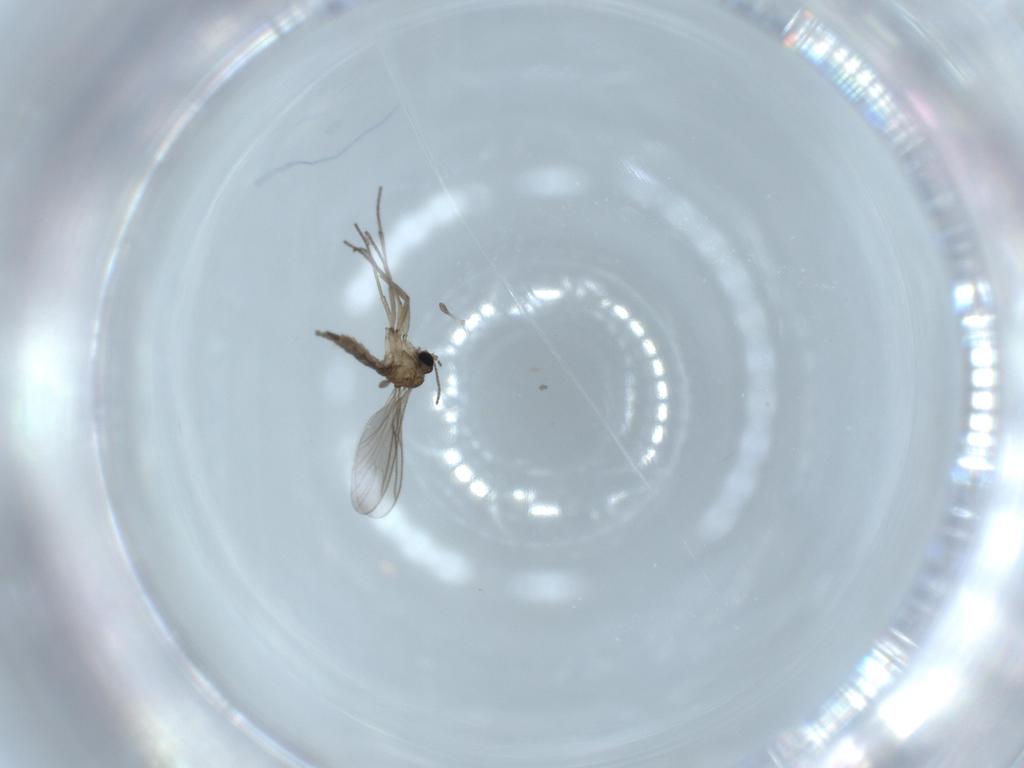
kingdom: Animalia
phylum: Arthropoda
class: Insecta
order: Diptera
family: Sciaridae
